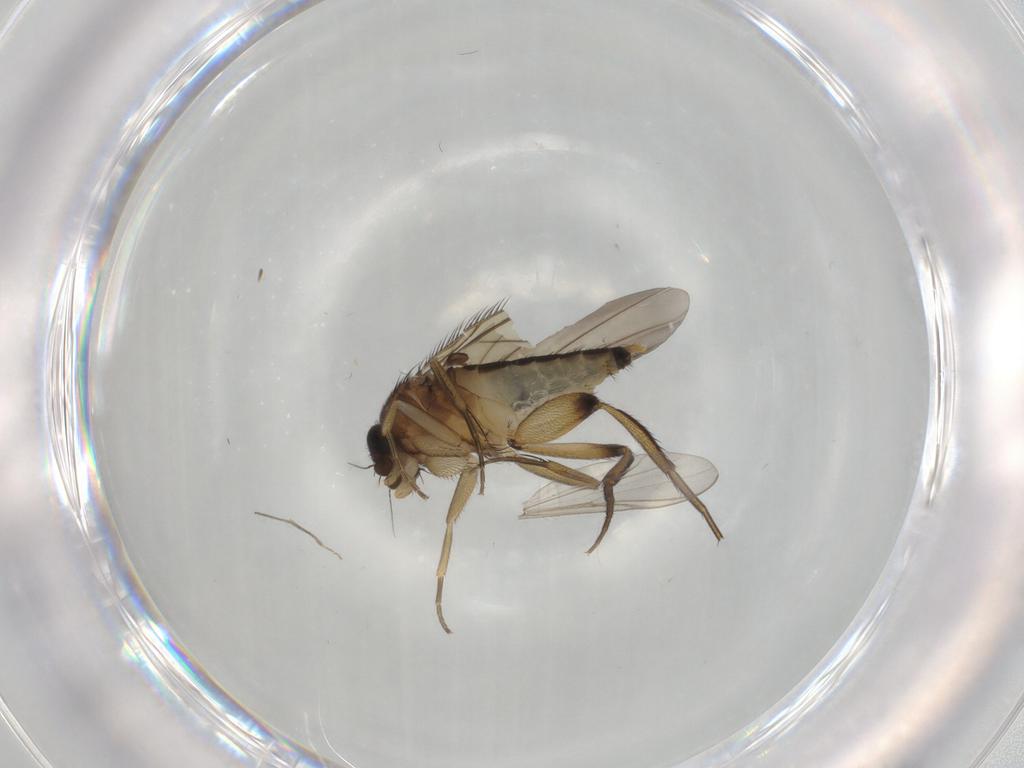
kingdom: Animalia
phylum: Arthropoda
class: Insecta
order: Diptera
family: Phoridae
